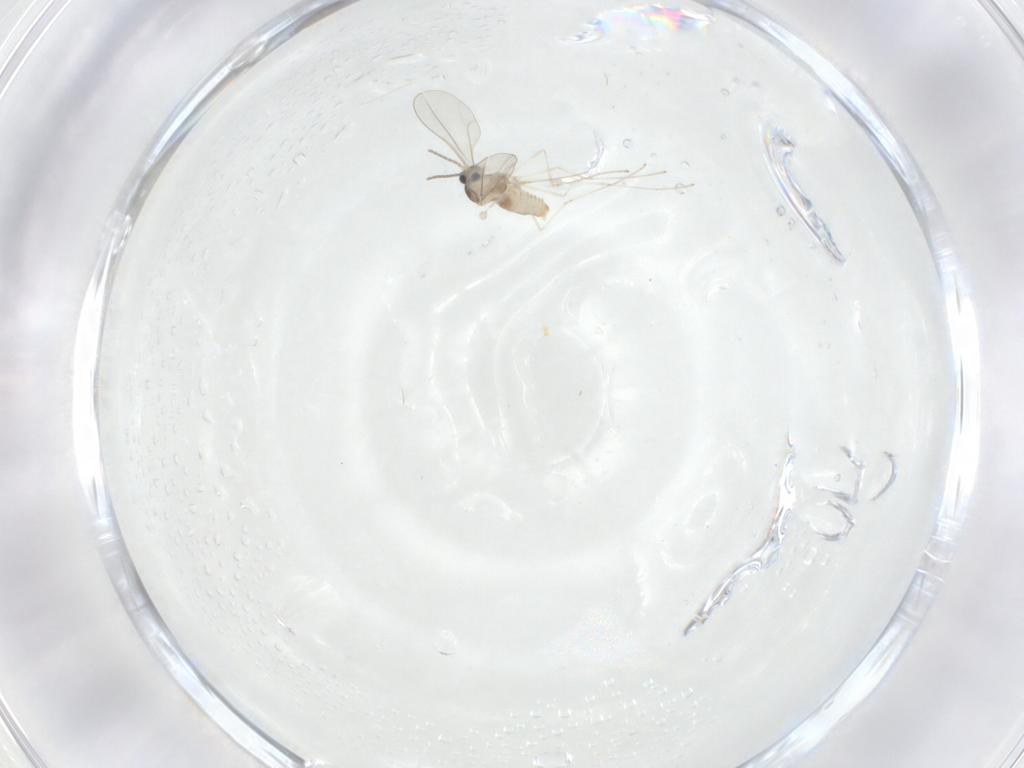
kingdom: Animalia
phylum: Arthropoda
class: Insecta
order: Diptera
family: Cecidomyiidae
